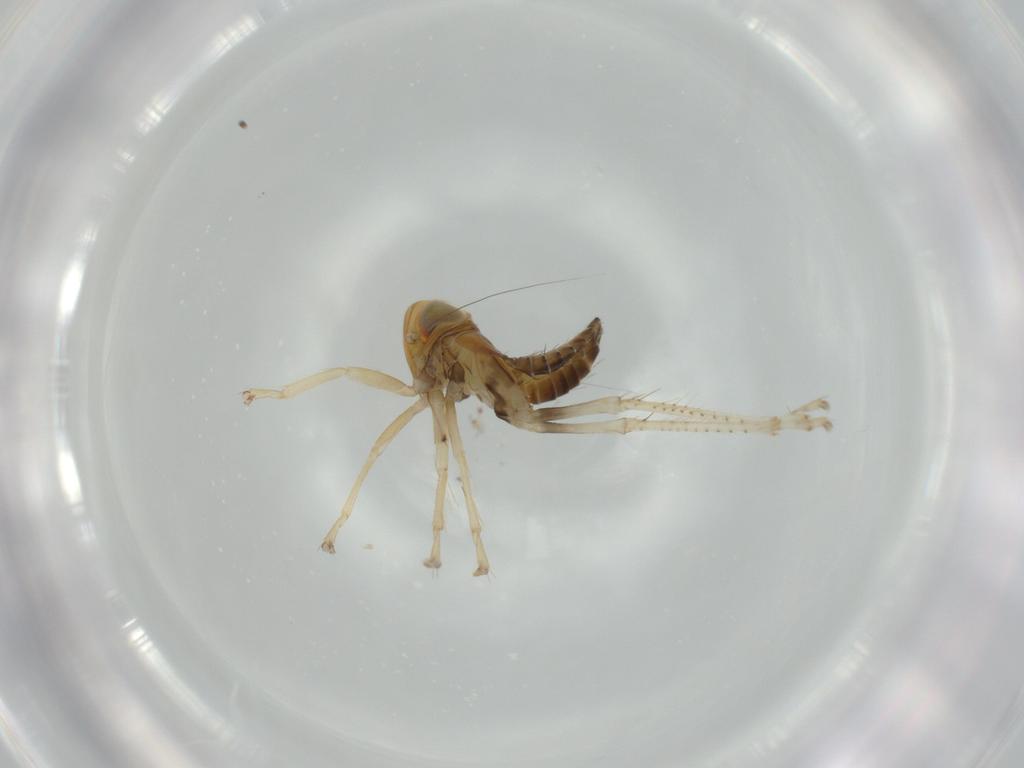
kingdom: Animalia
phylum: Arthropoda
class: Insecta
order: Hemiptera
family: Cicadellidae
